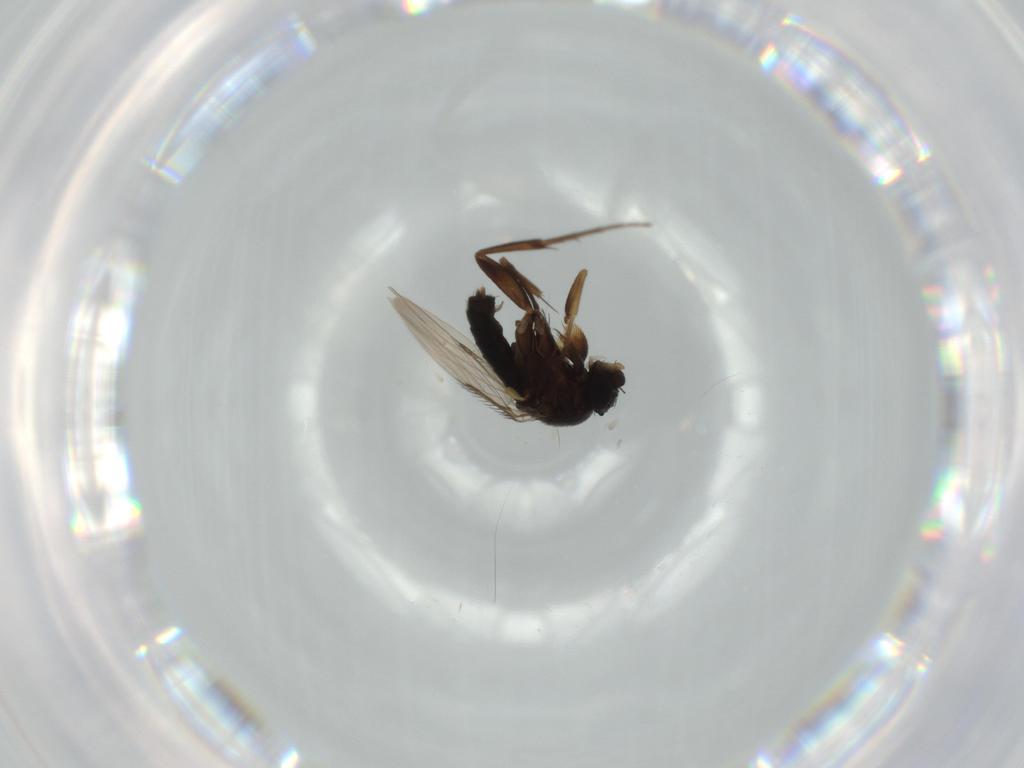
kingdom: Animalia
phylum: Arthropoda
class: Insecta
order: Diptera
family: Phoridae
